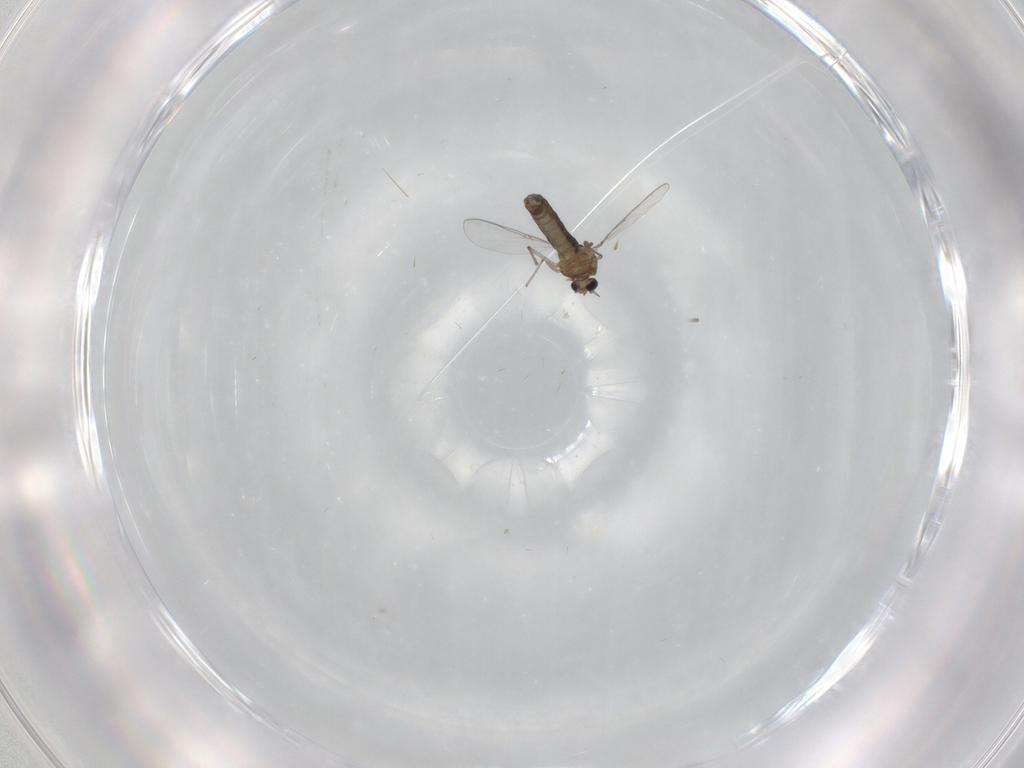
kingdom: Animalia
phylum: Arthropoda
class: Insecta
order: Diptera
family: Chironomidae
